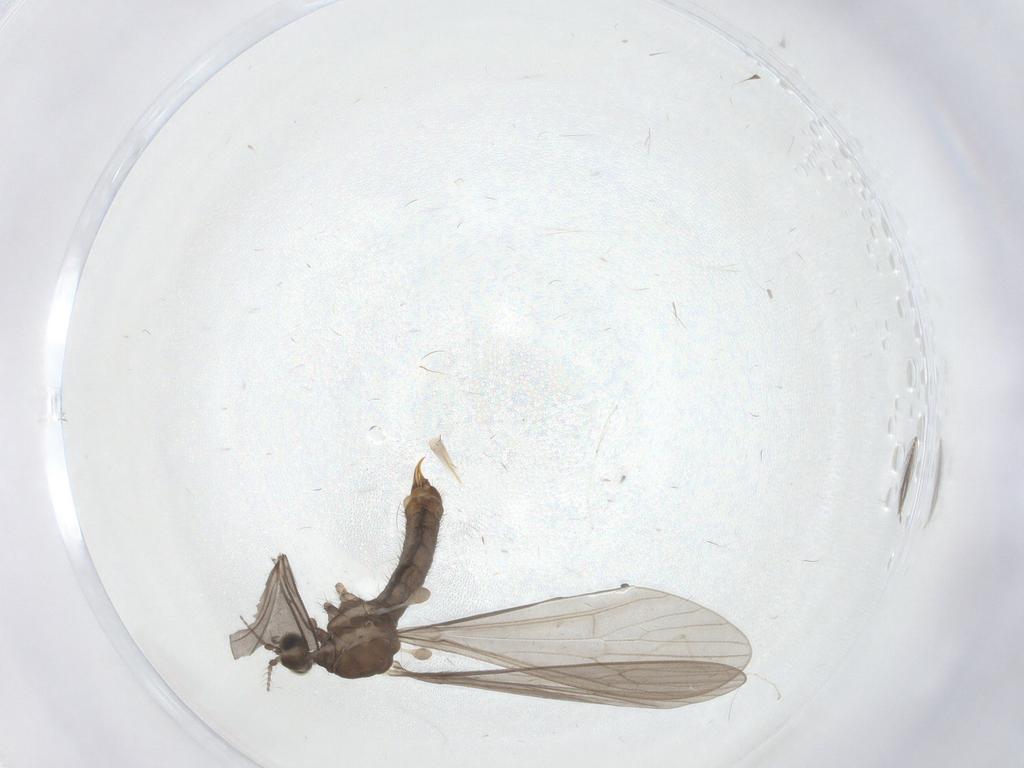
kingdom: Animalia
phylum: Arthropoda
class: Insecta
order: Diptera
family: Limoniidae
